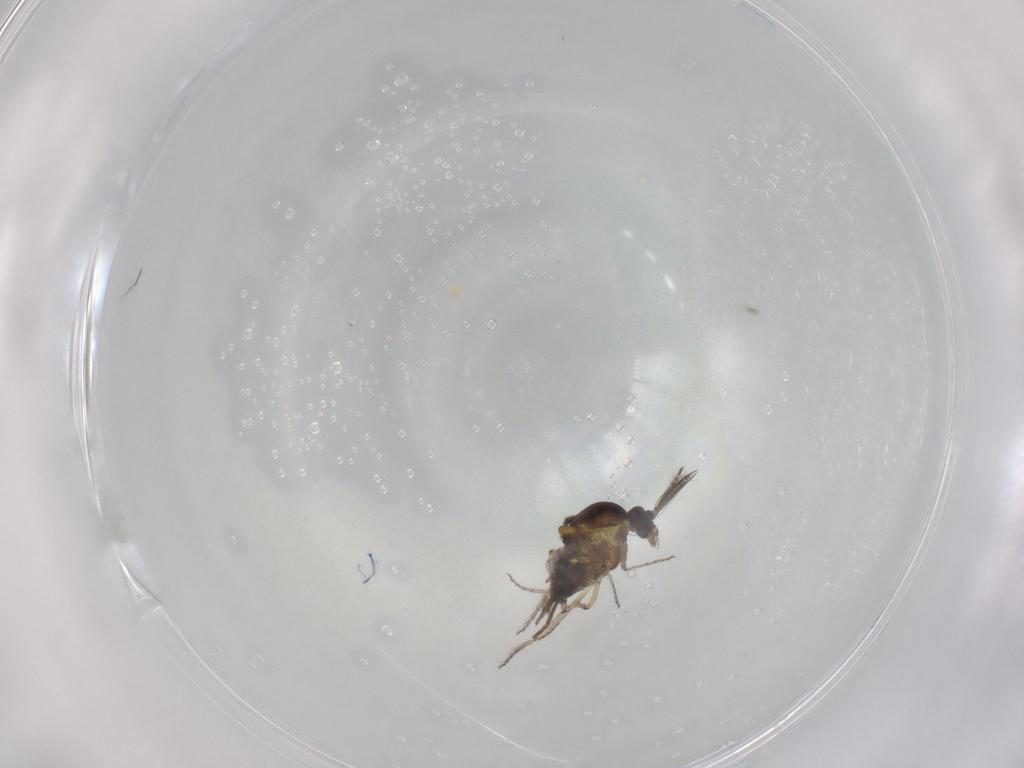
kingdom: Animalia
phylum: Arthropoda
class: Insecta
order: Diptera
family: Ceratopogonidae
